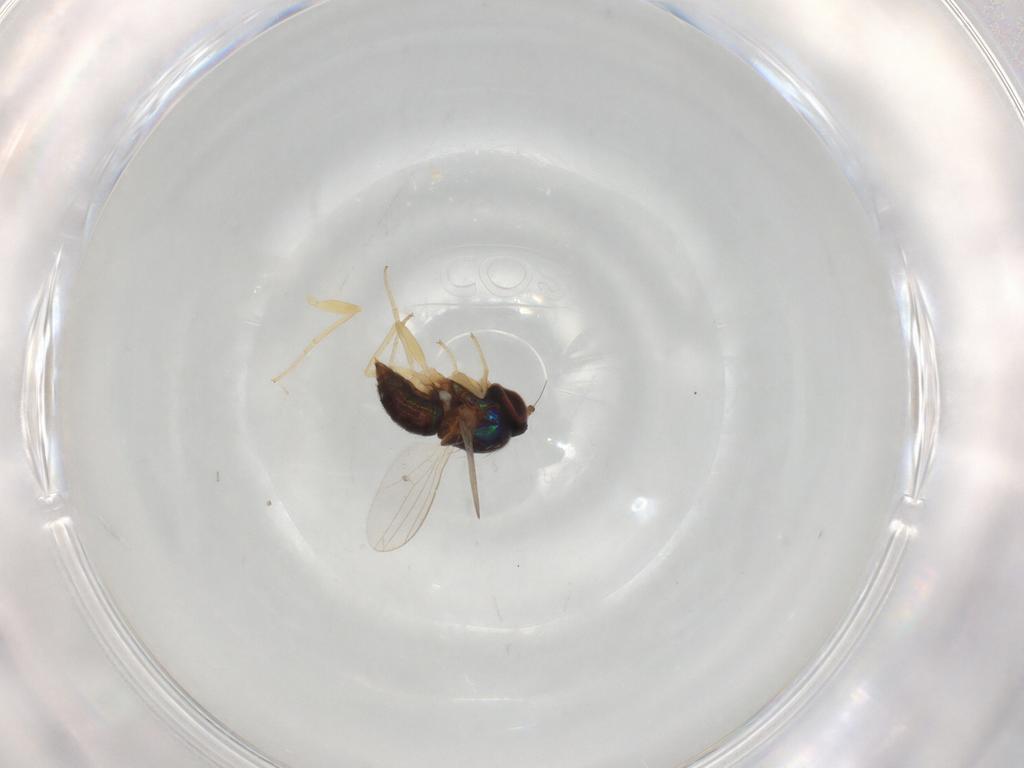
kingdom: Animalia
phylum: Arthropoda
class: Insecta
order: Diptera
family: Dolichopodidae
